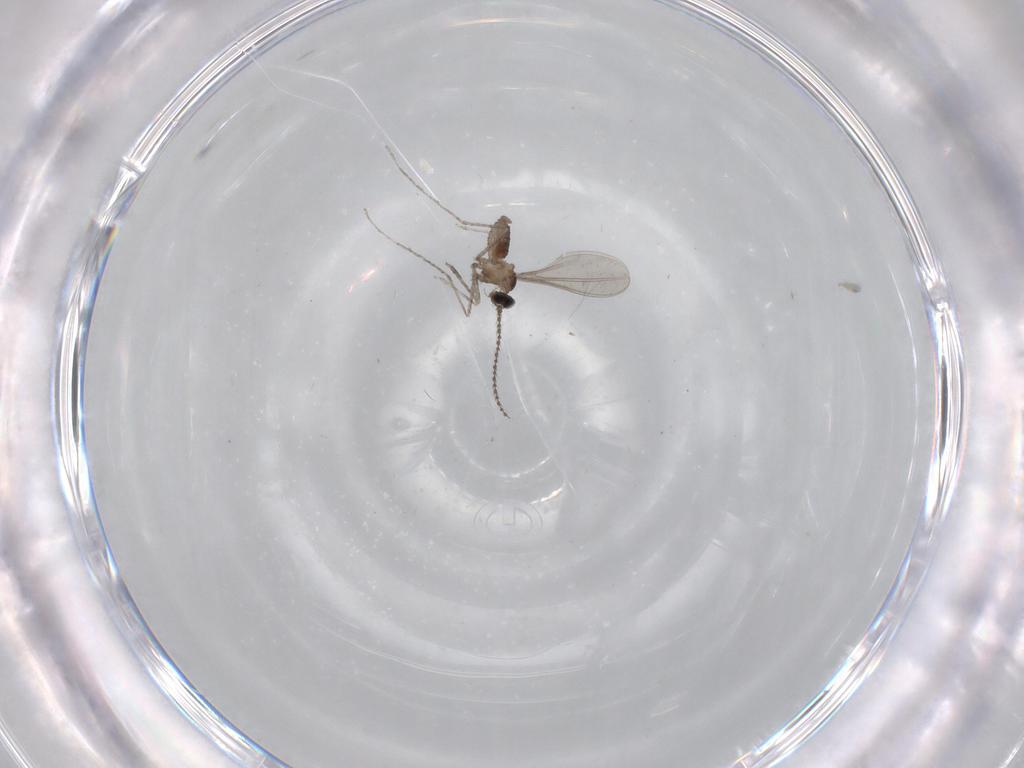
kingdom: Animalia
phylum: Arthropoda
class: Insecta
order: Diptera
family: Cecidomyiidae
